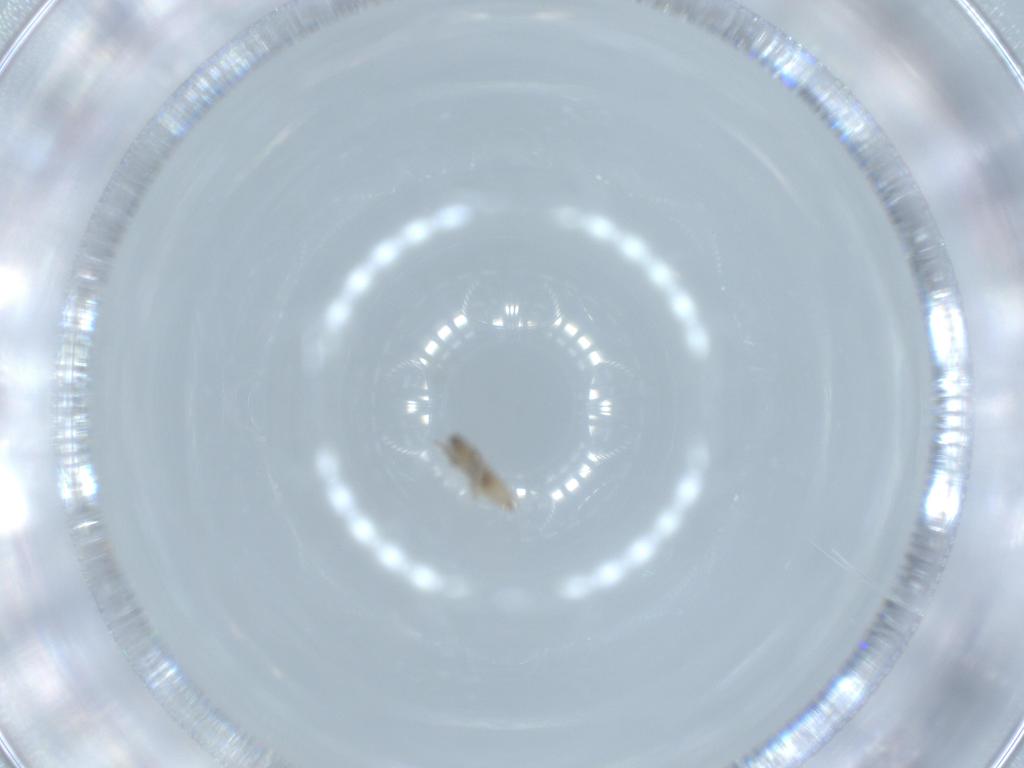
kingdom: Animalia
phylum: Arthropoda
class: Insecta
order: Diptera
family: Cecidomyiidae
